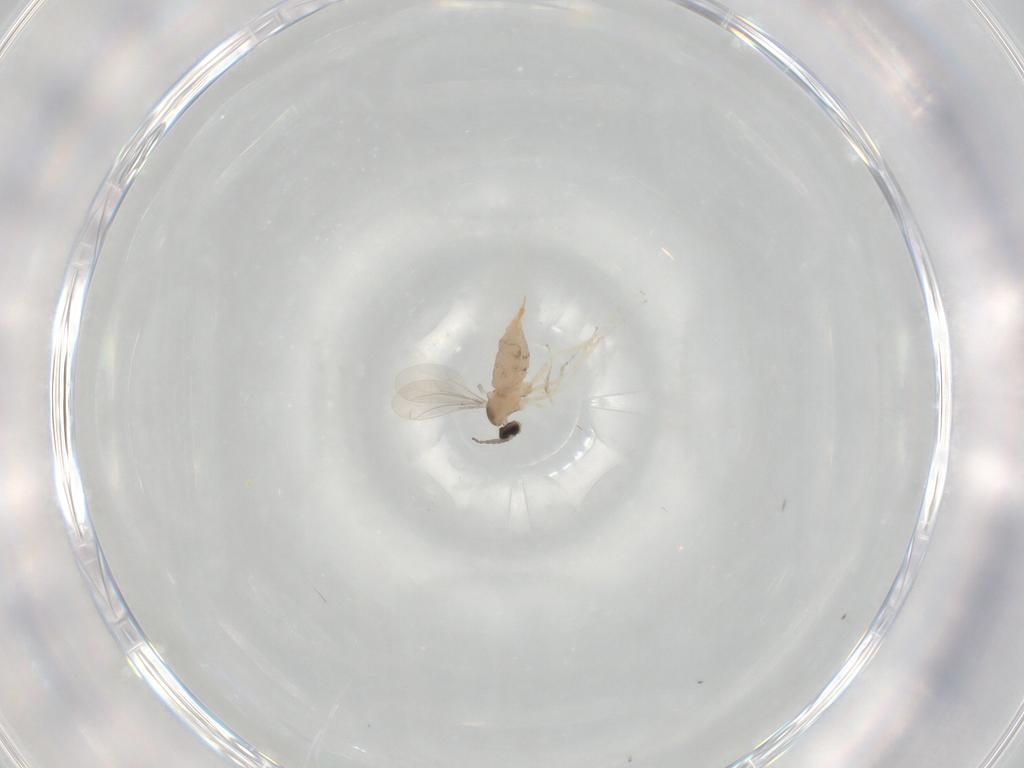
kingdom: Animalia
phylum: Arthropoda
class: Insecta
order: Diptera
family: Cecidomyiidae
